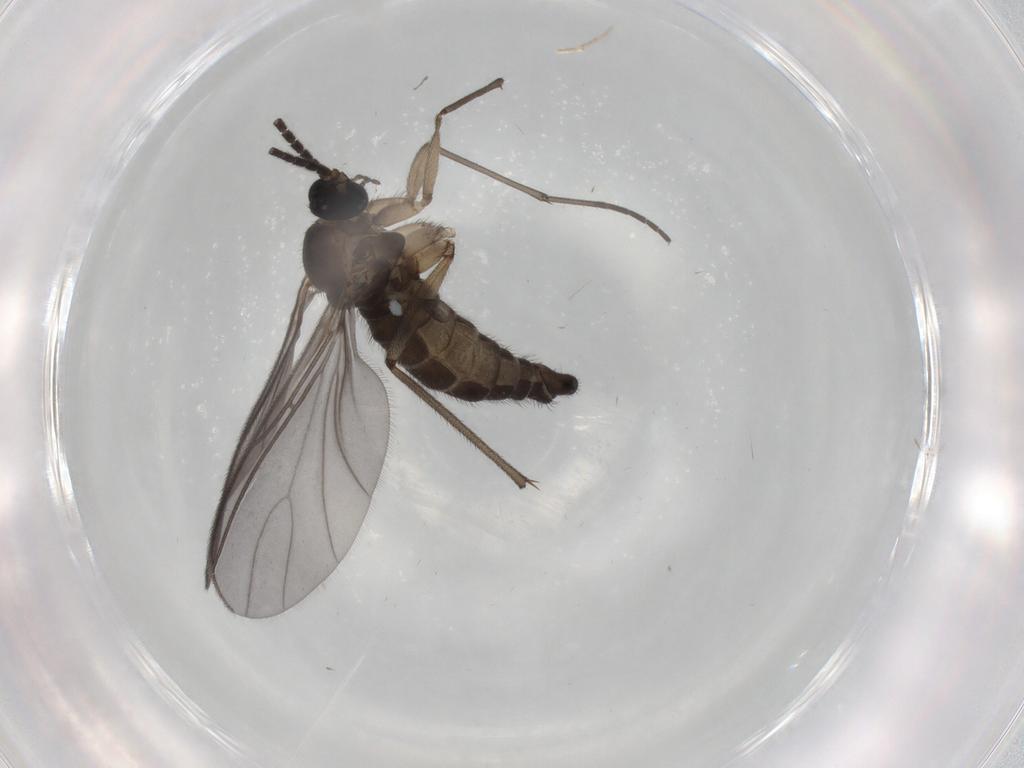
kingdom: Animalia
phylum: Arthropoda
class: Insecta
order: Diptera
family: Sciaridae
